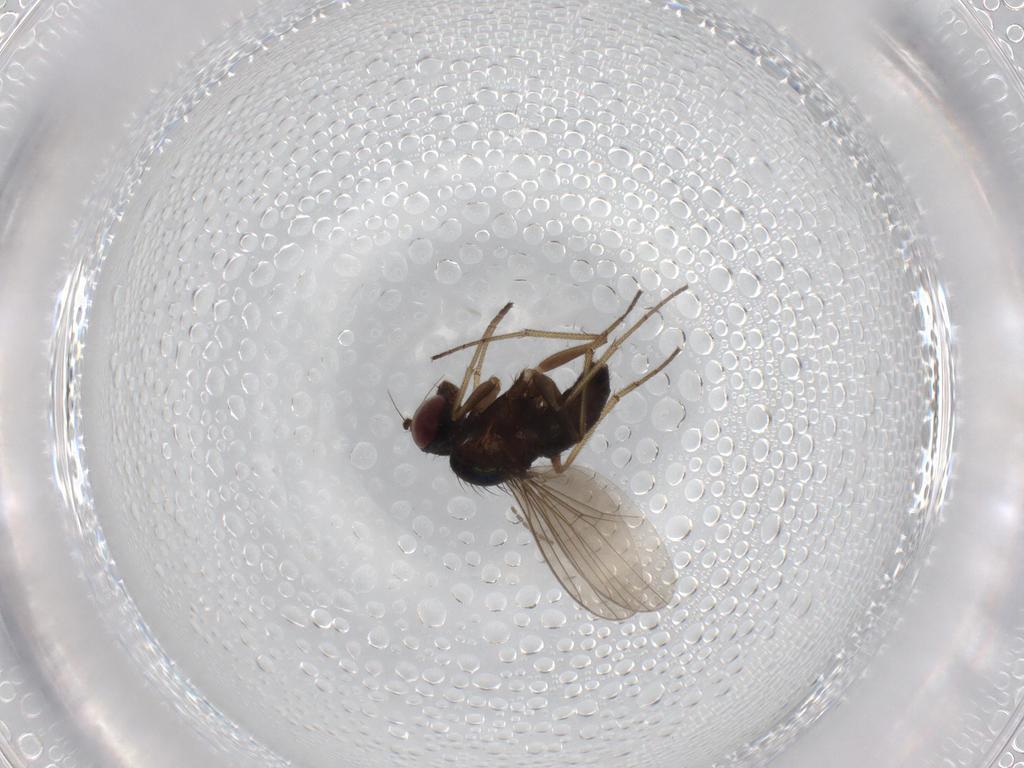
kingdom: Animalia
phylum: Arthropoda
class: Insecta
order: Diptera
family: Dolichopodidae
